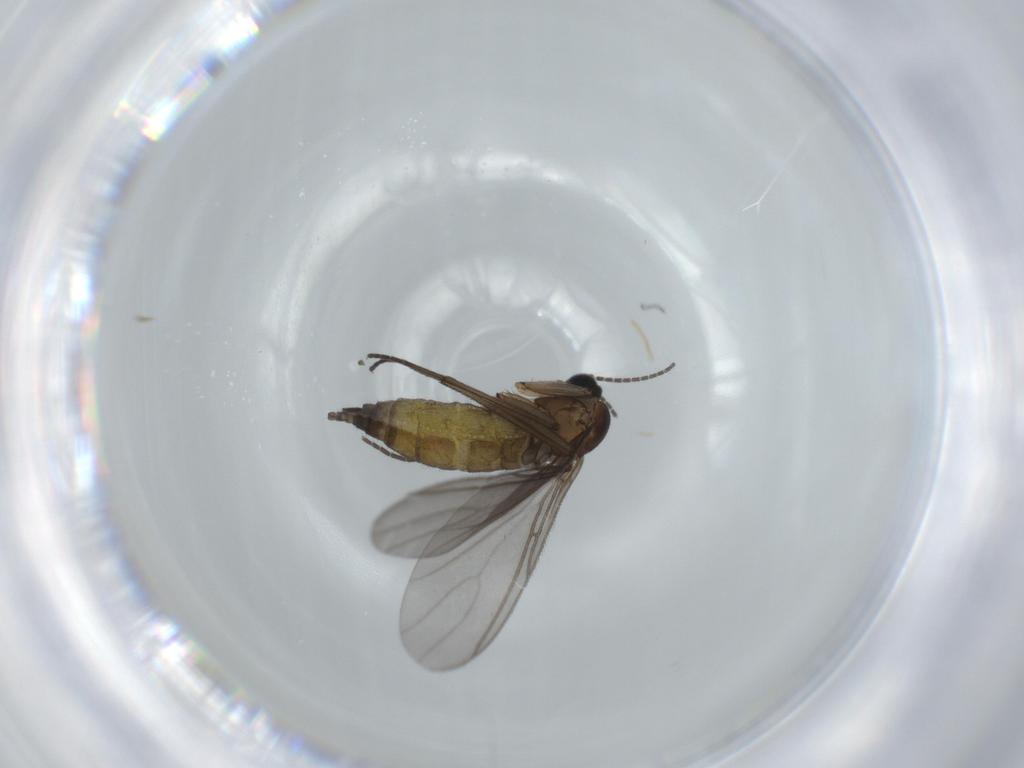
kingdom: Animalia
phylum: Arthropoda
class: Insecta
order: Diptera
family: Sciaridae
